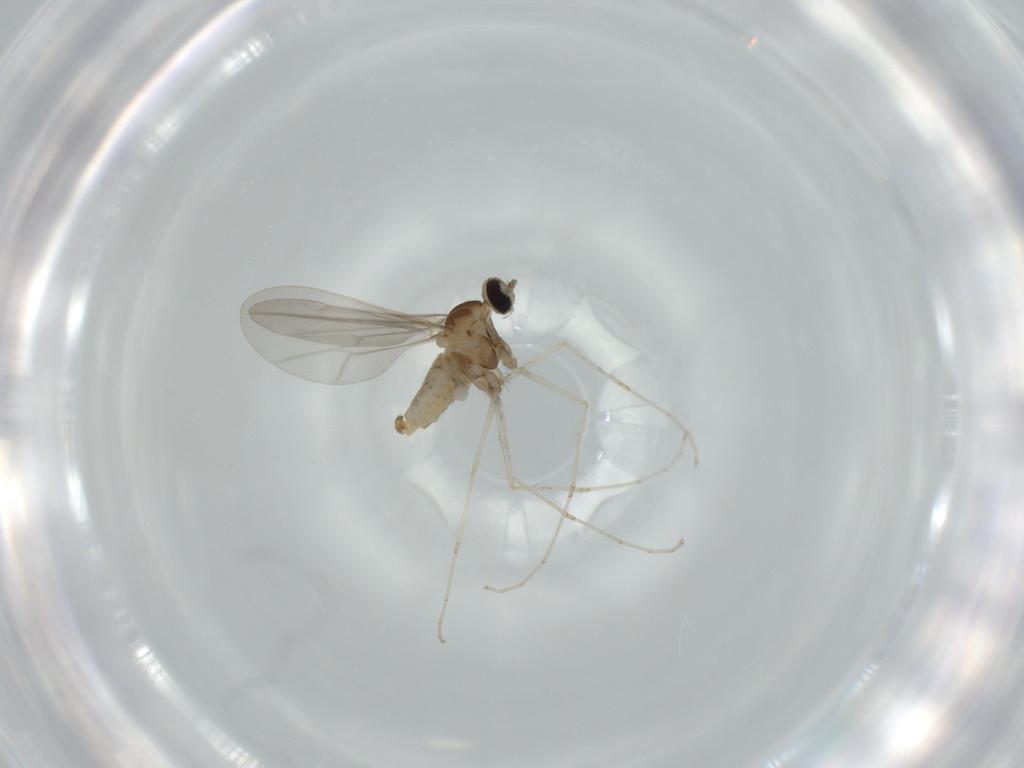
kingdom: Animalia
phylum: Arthropoda
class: Insecta
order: Diptera
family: Cecidomyiidae
